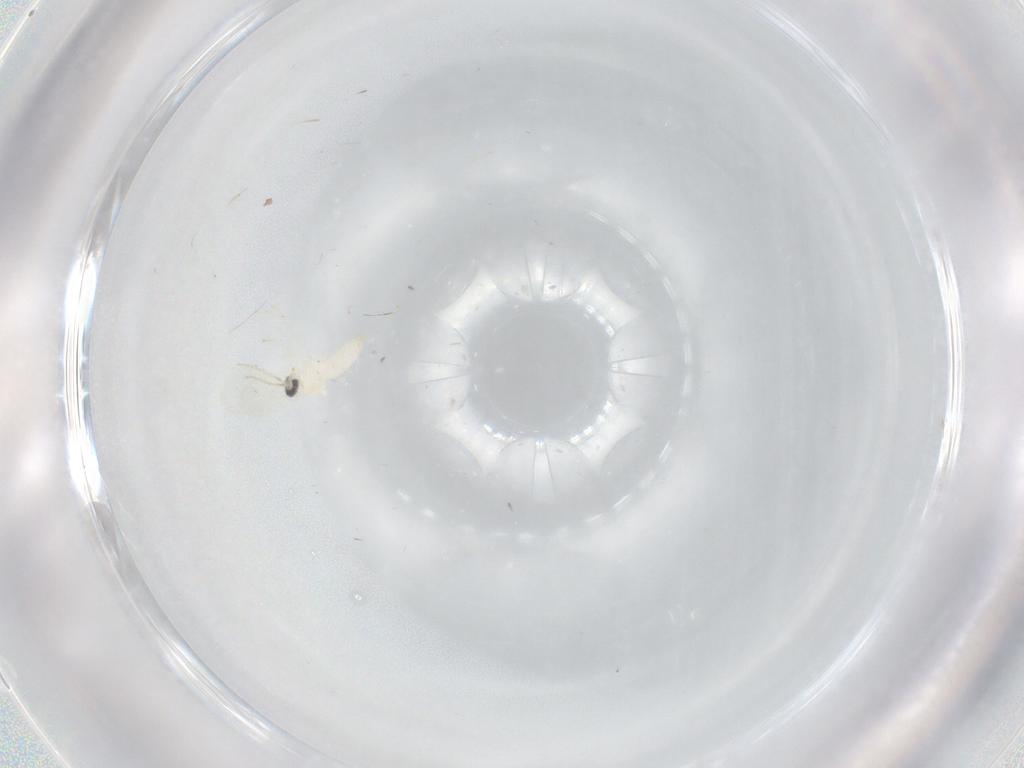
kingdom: Animalia
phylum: Arthropoda
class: Insecta
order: Diptera
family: Cecidomyiidae
